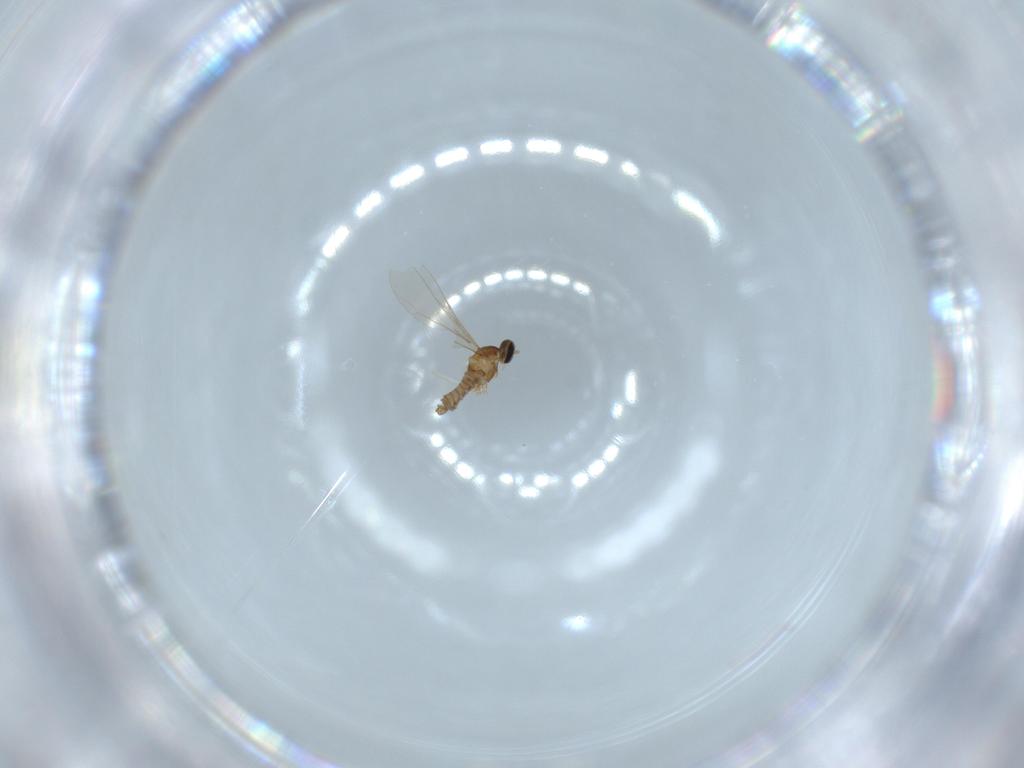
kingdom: Animalia
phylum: Arthropoda
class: Insecta
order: Diptera
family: Cecidomyiidae
